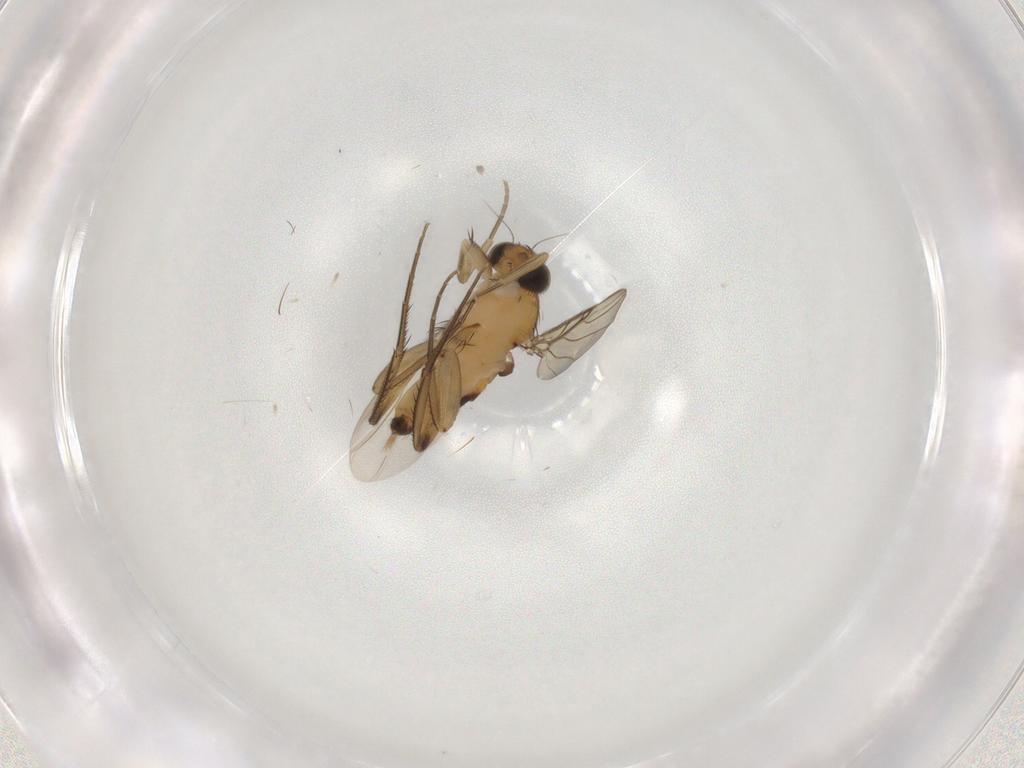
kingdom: Animalia
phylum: Arthropoda
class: Insecta
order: Diptera
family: Phoridae
